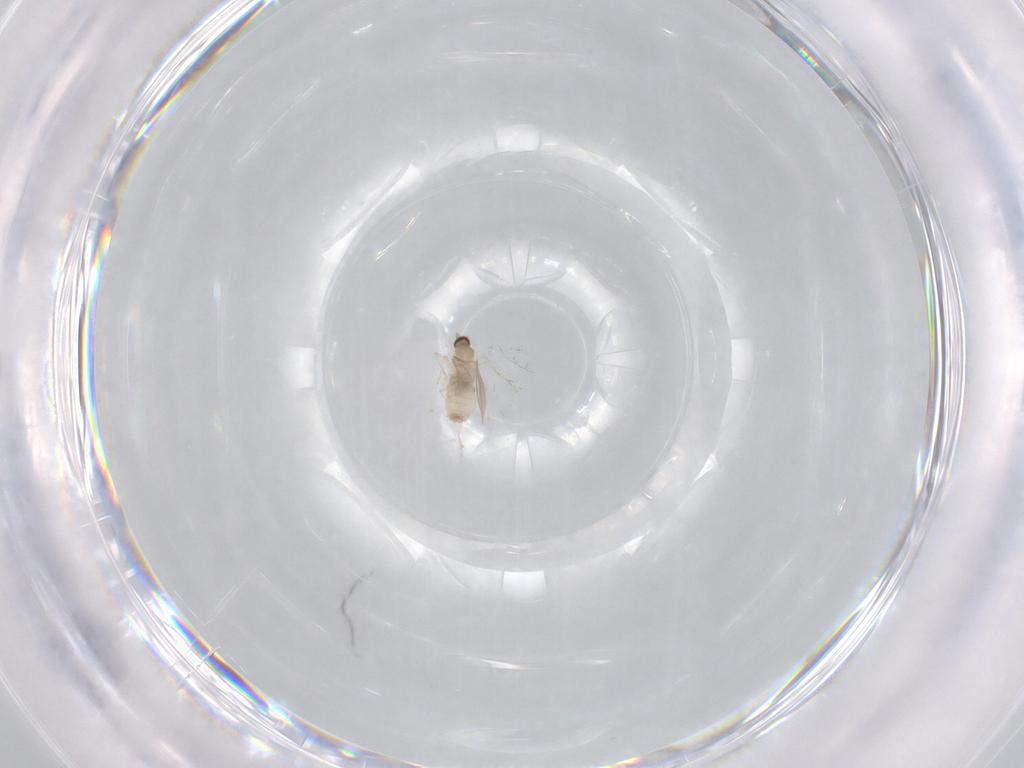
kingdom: Animalia
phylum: Arthropoda
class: Insecta
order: Diptera
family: Cecidomyiidae
